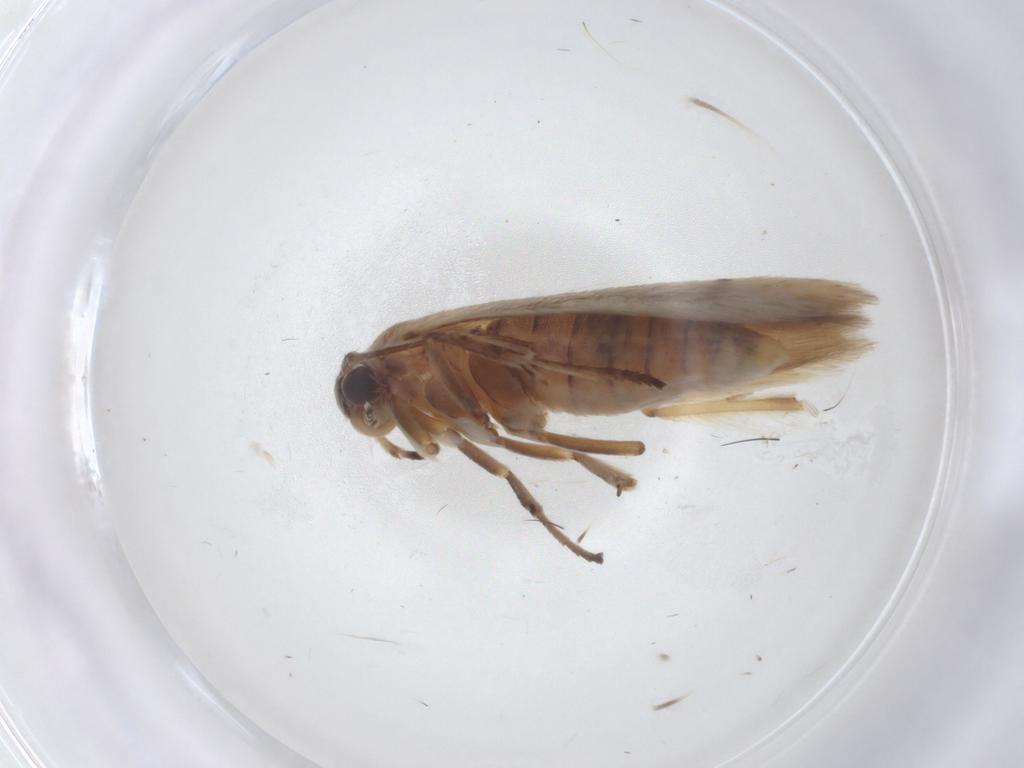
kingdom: Animalia
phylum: Arthropoda
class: Insecta
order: Lepidoptera
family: Scythrididae
